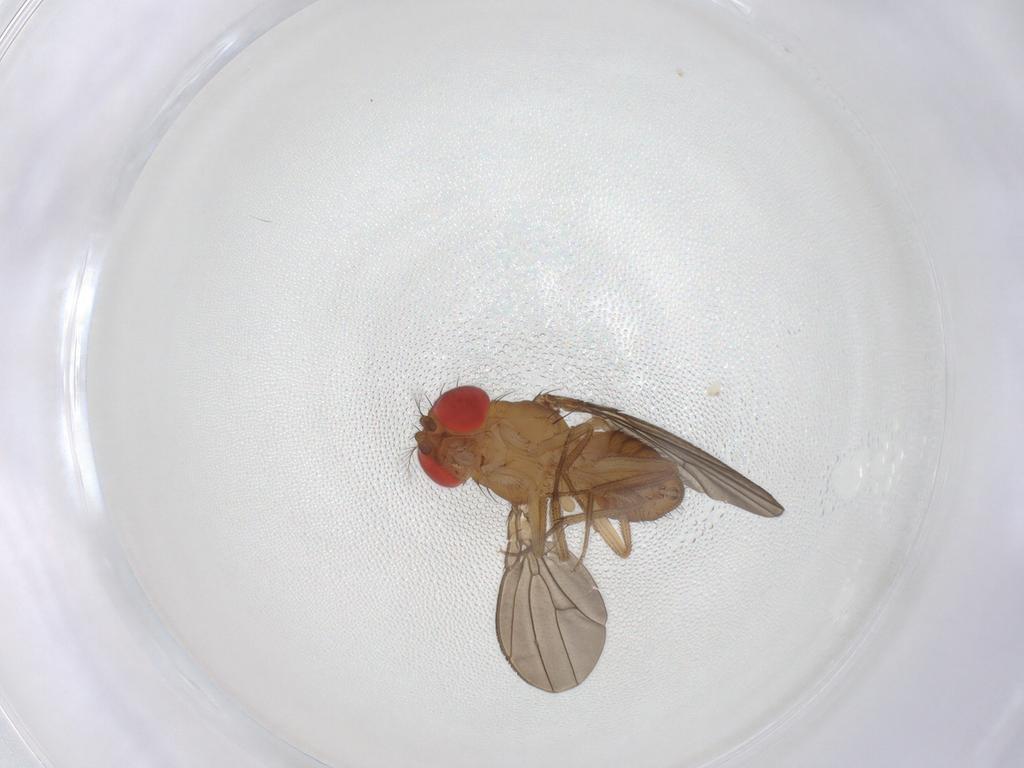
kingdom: Animalia
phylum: Arthropoda
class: Insecta
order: Diptera
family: Drosophilidae
